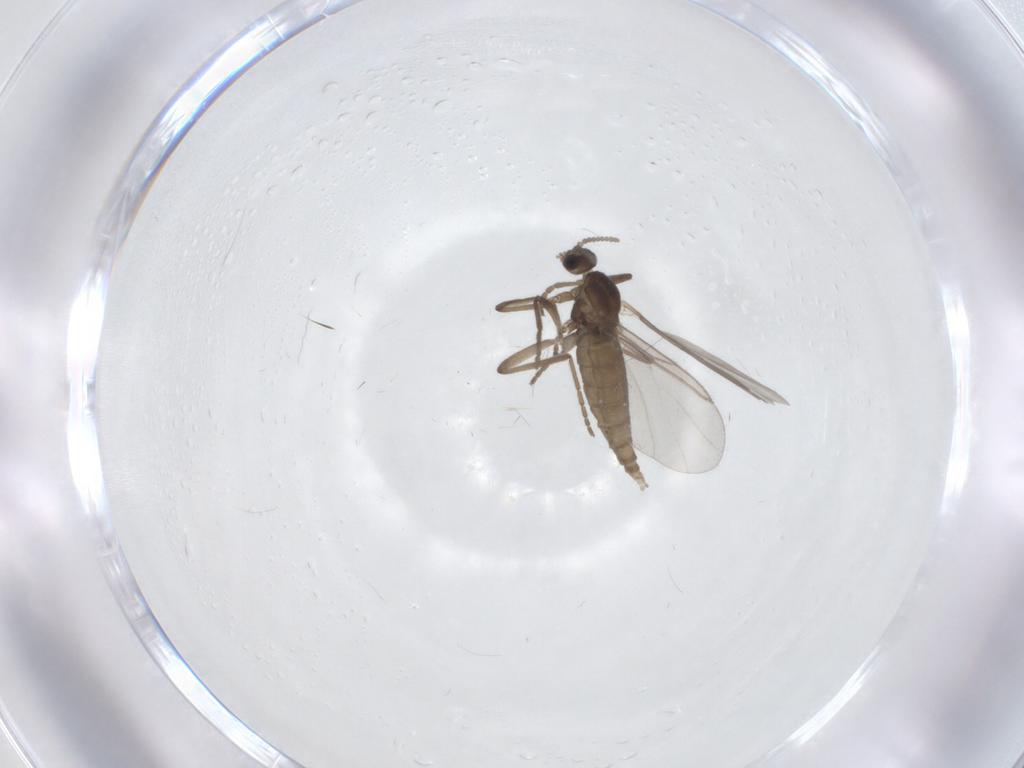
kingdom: Animalia
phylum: Arthropoda
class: Insecta
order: Diptera
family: Cecidomyiidae
